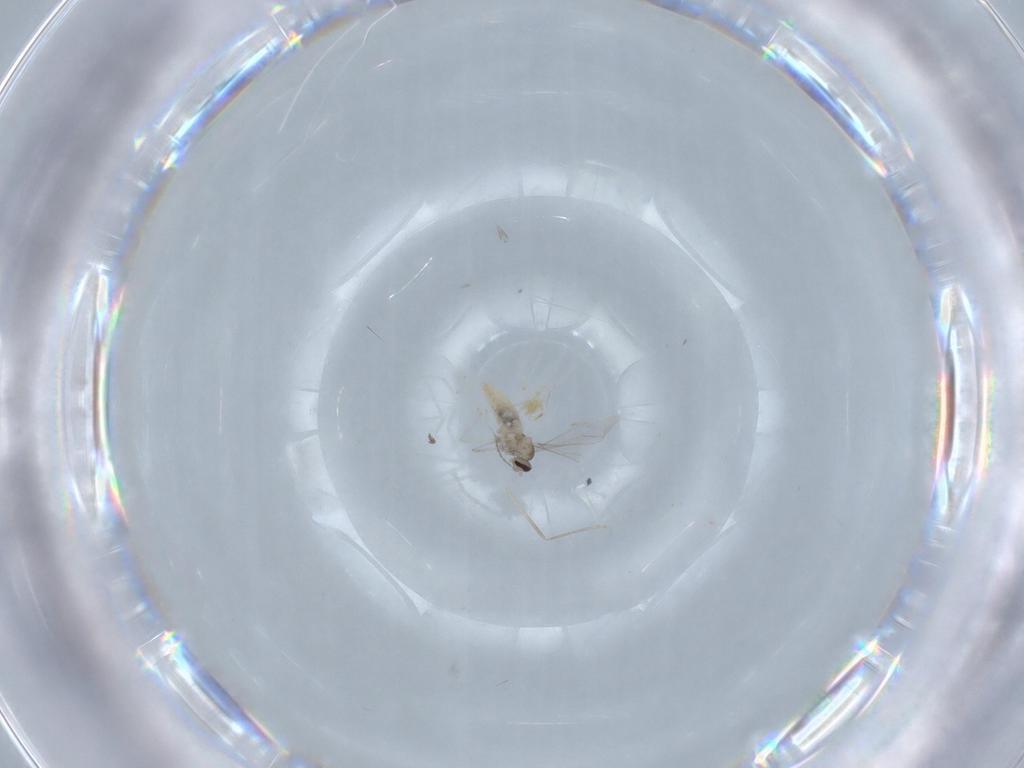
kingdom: Animalia
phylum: Arthropoda
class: Insecta
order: Diptera
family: Cecidomyiidae
